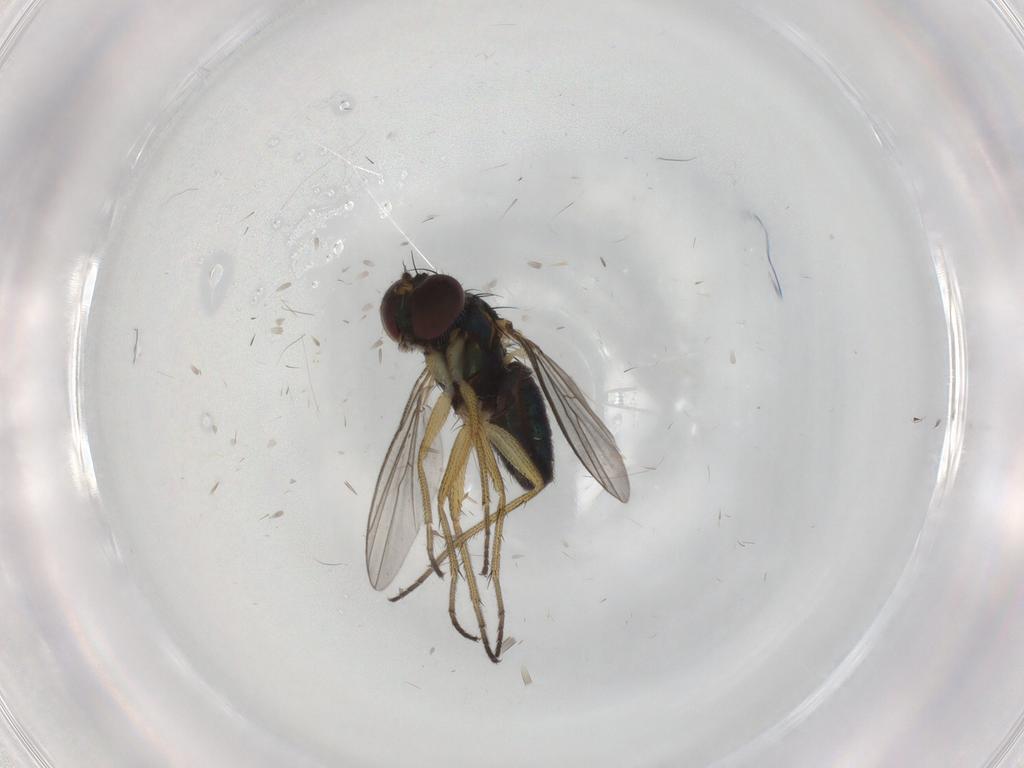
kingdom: Animalia
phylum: Arthropoda
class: Insecta
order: Diptera
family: Dolichopodidae
